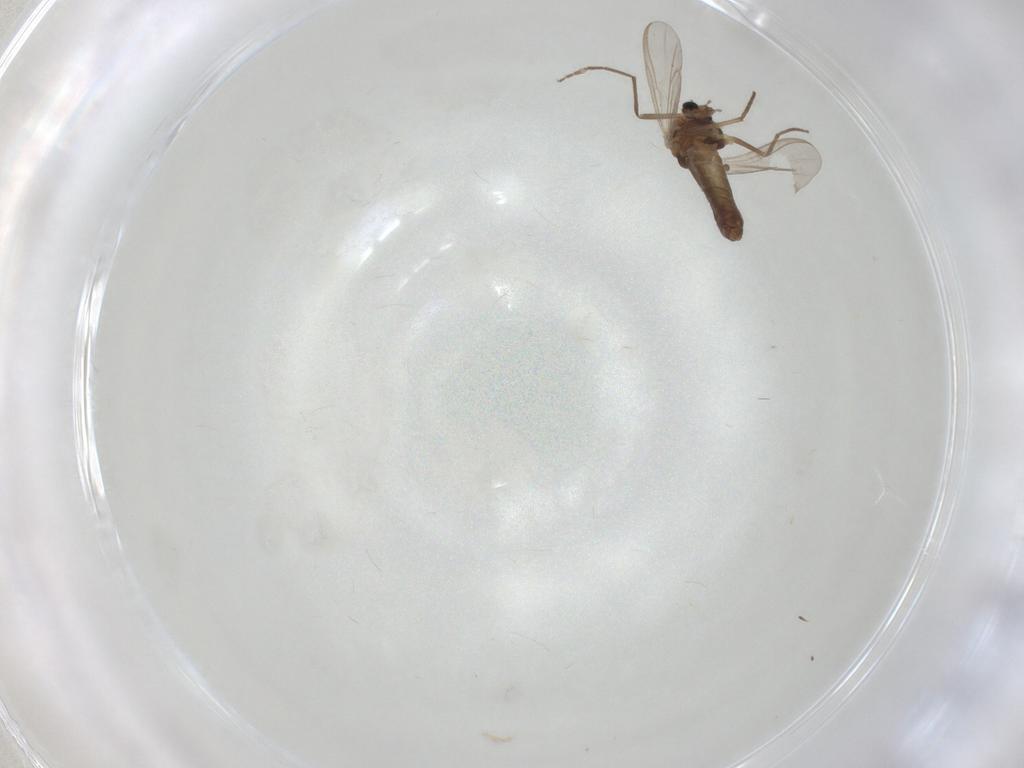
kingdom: Animalia
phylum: Arthropoda
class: Insecta
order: Diptera
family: Chironomidae
